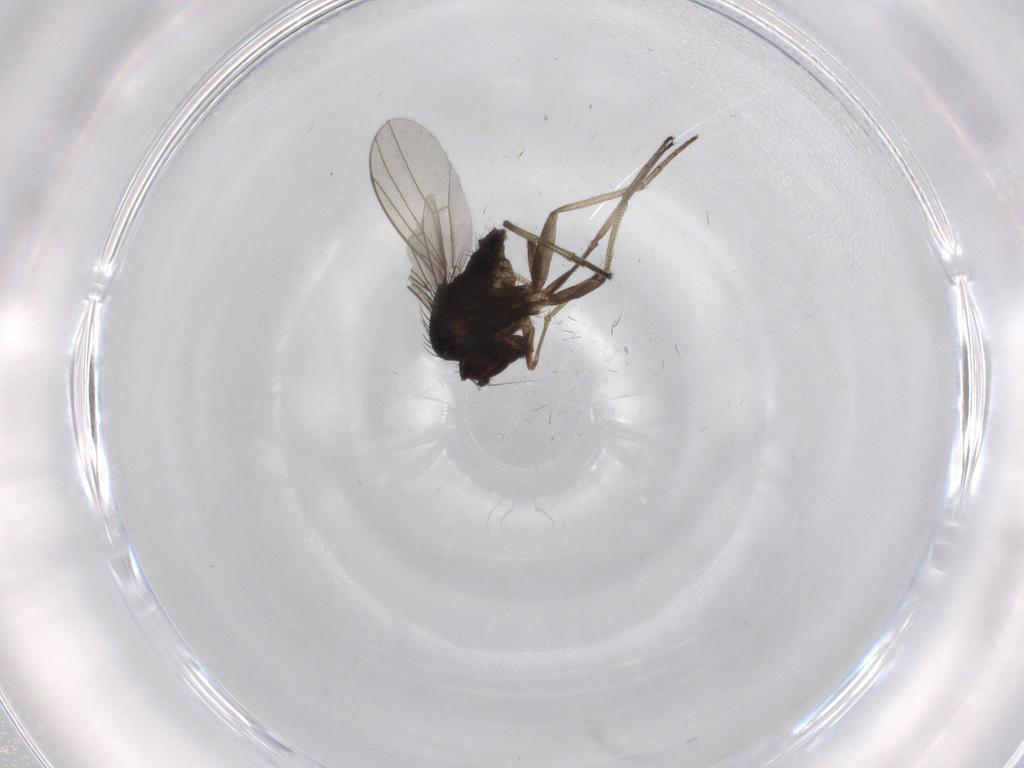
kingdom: Animalia
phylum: Arthropoda
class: Insecta
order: Diptera
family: Dolichopodidae
